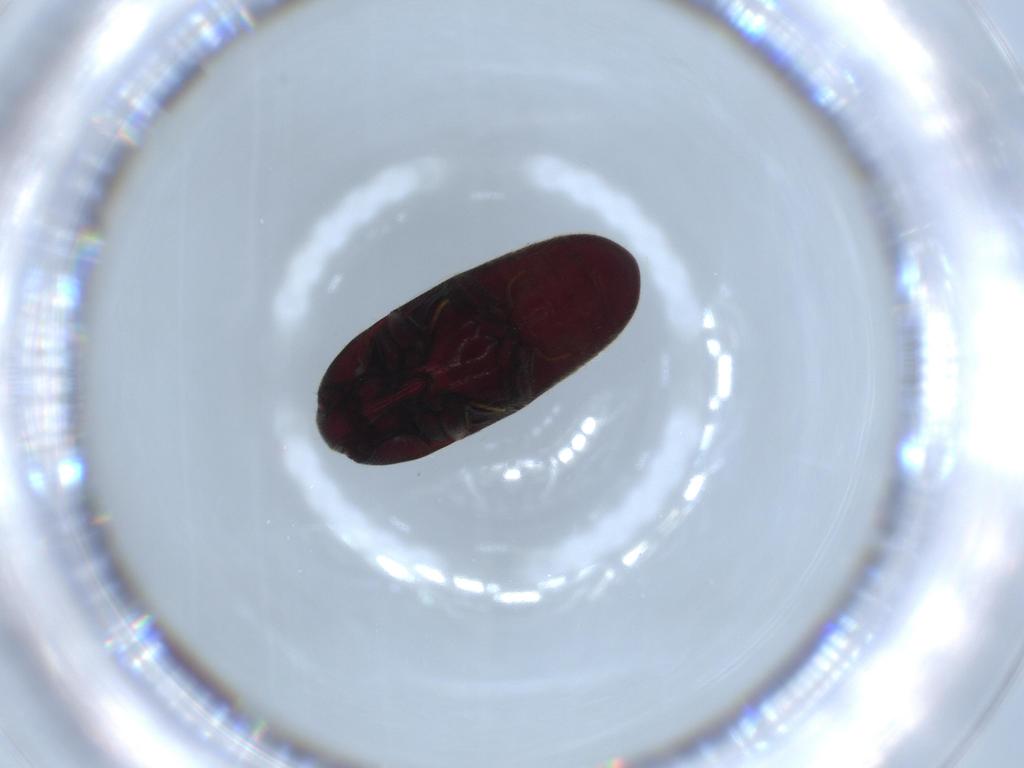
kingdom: Animalia
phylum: Arthropoda
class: Insecta
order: Coleoptera
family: Throscidae
